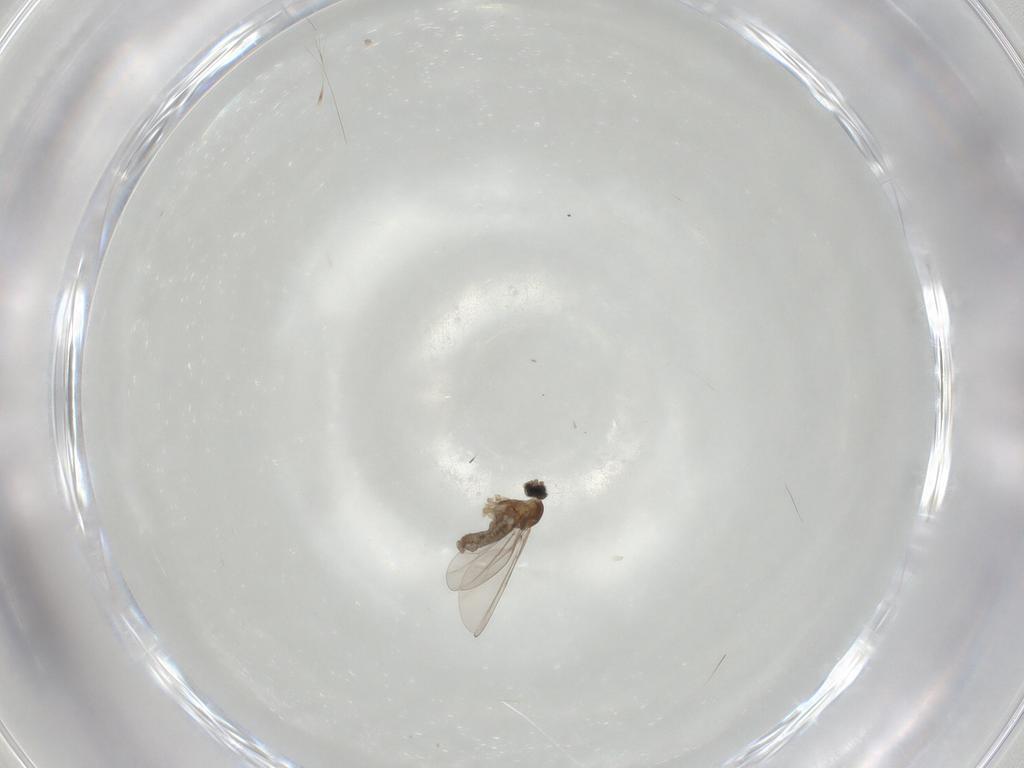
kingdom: Animalia
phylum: Arthropoda
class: Insecta
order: Diptera
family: Cecidomyiidae
